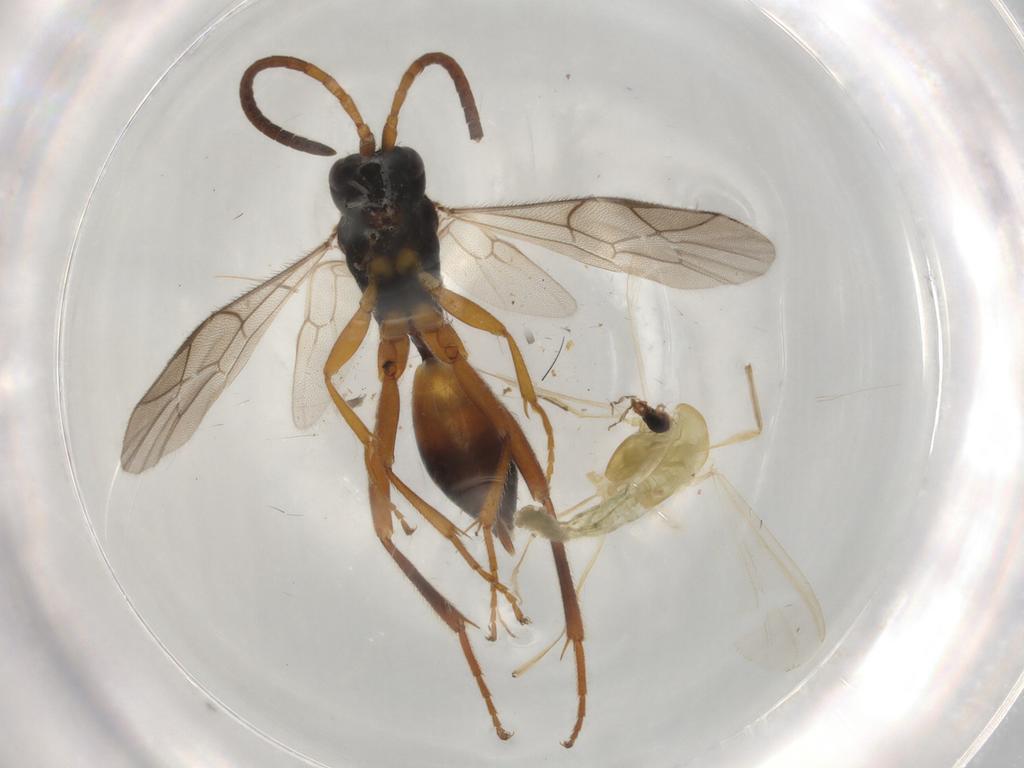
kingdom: Animalia
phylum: Arthropoda
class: Insecta
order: Diptera
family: Chironomidae
